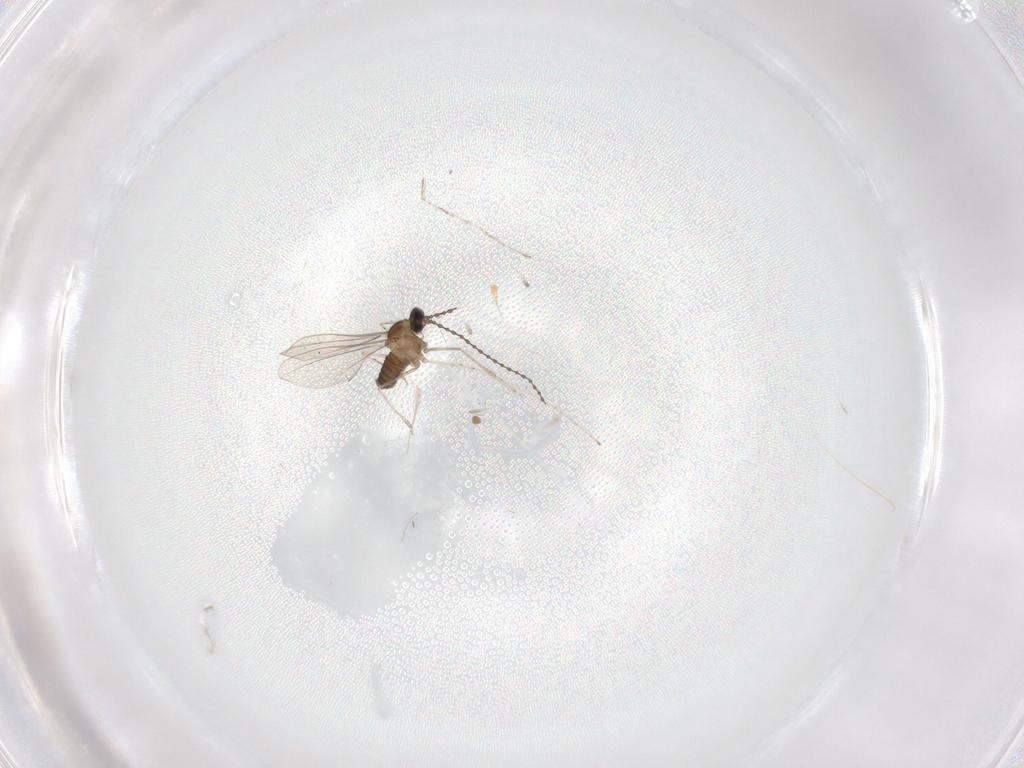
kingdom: Animalia
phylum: Arthropoda
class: Insecta
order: Diptera
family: Cecidomyiidae
